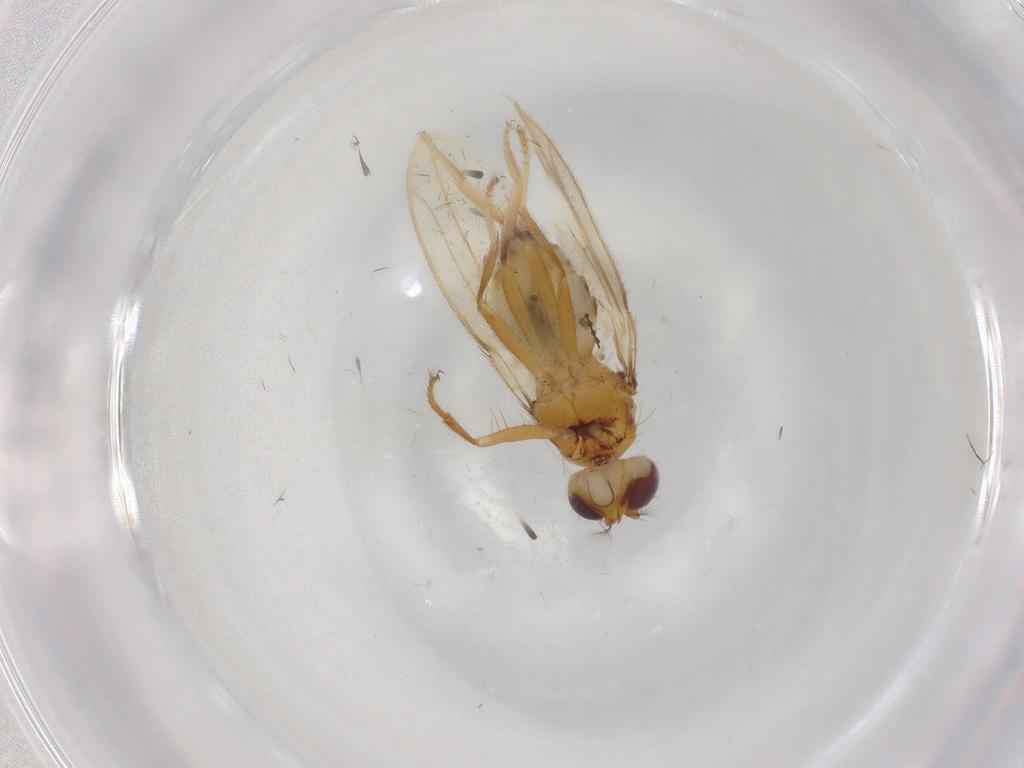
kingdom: Animalia
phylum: Arthropoda
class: Insecta
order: Diptera
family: Periscelididae
